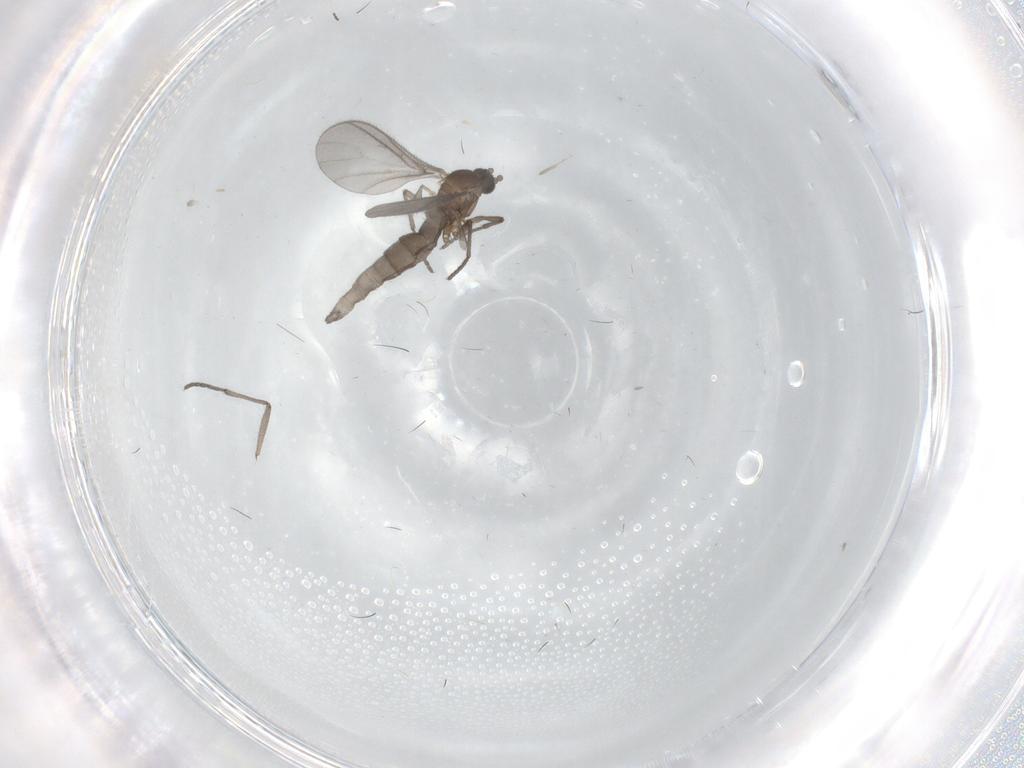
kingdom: Animalia
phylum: Arthropoda
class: Insecta
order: Diptera
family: Sciaridae
